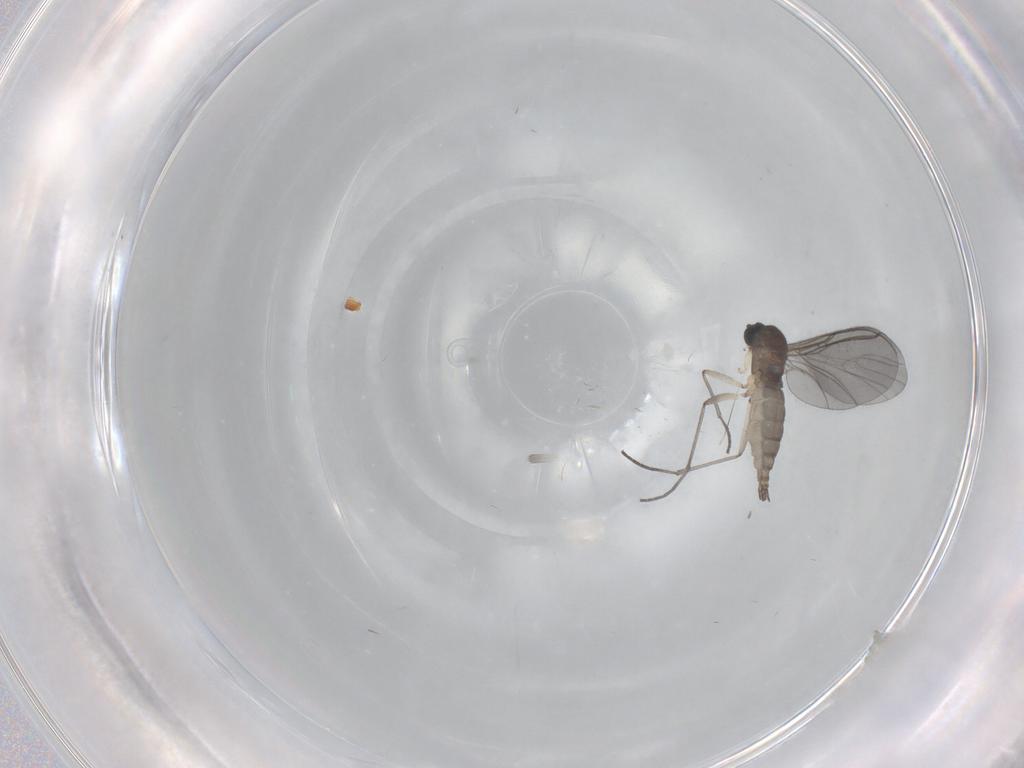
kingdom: Animalia
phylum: Arthropoda
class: Insecta
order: Diptera
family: Sciaridae
